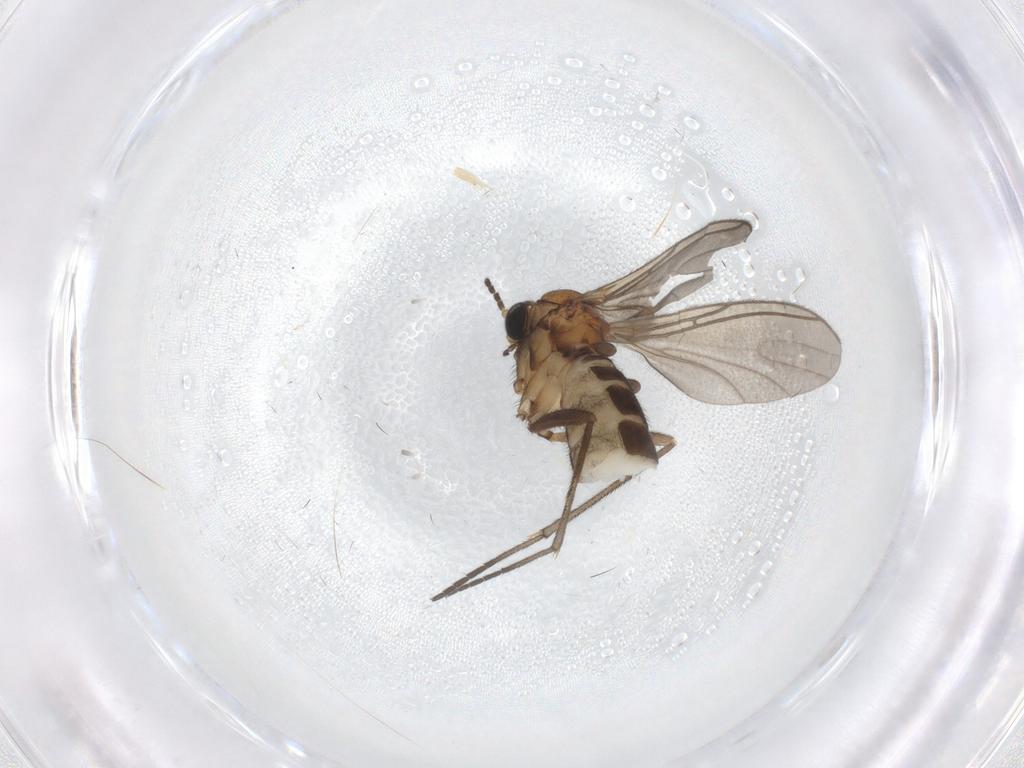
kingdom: Animalia
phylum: Arthropoda
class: Insecta
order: Diptera
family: Sciaridae
